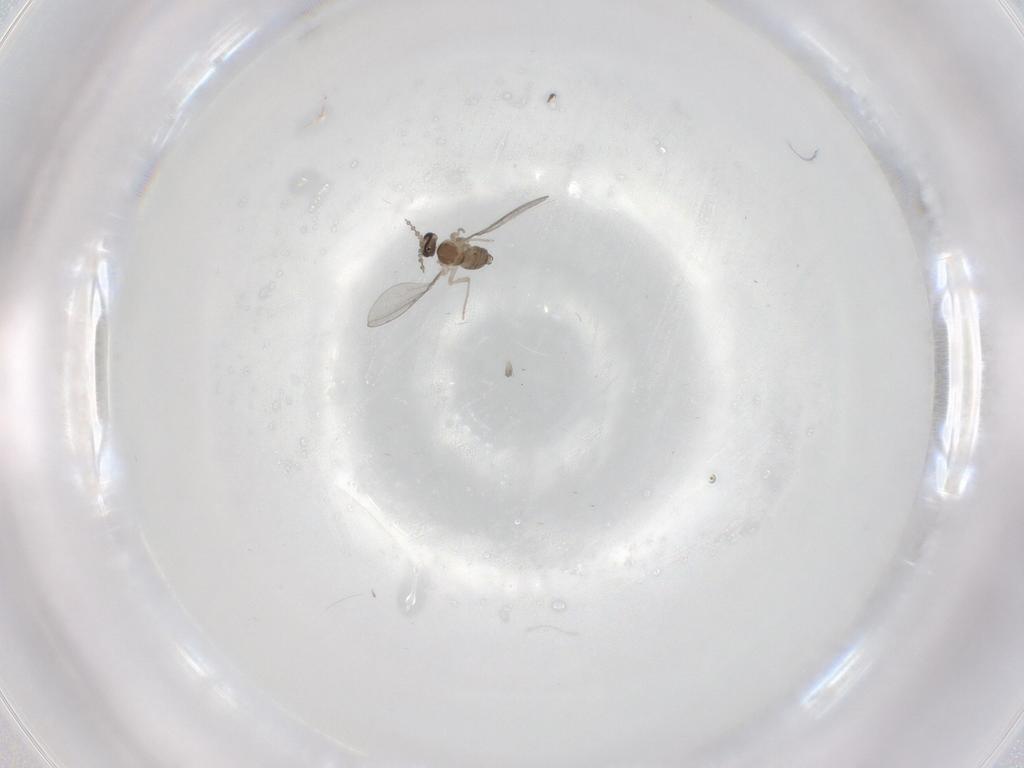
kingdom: Animalia
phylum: Arthropoda
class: Insecta
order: Diptera
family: Cecidomyiidae
